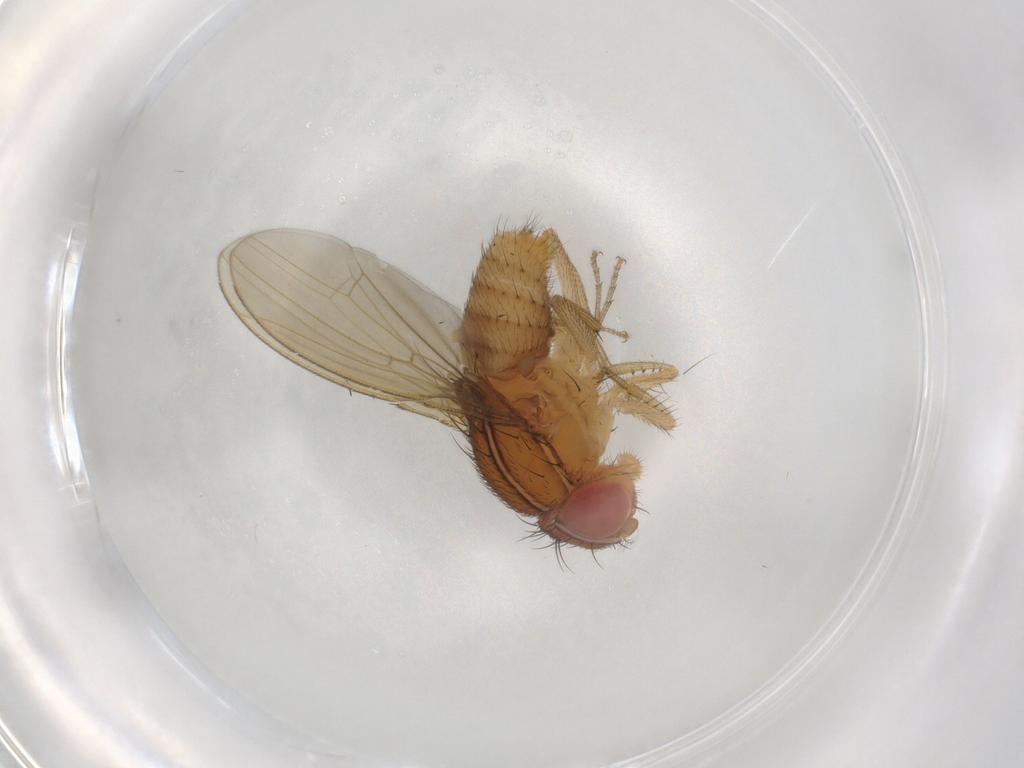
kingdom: Animalia
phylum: Arthropoda
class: Insecta
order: Diptera
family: Drosophilidae
